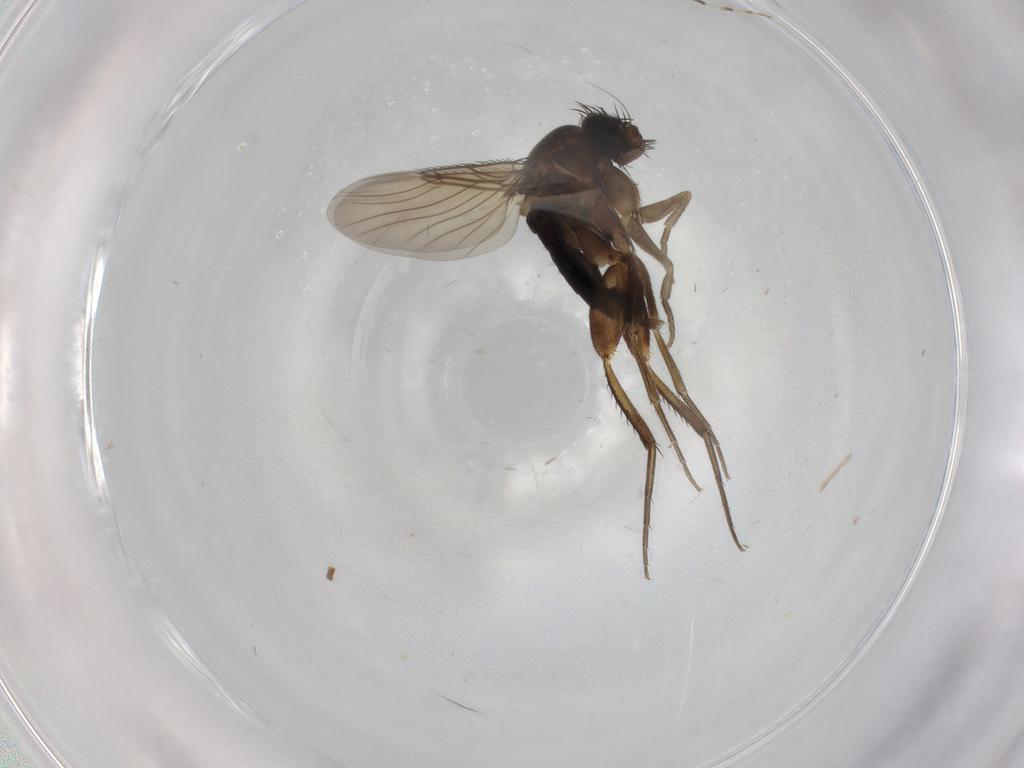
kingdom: Animalia
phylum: Arthropoda
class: Insecta
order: Diptera
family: Phoridae
